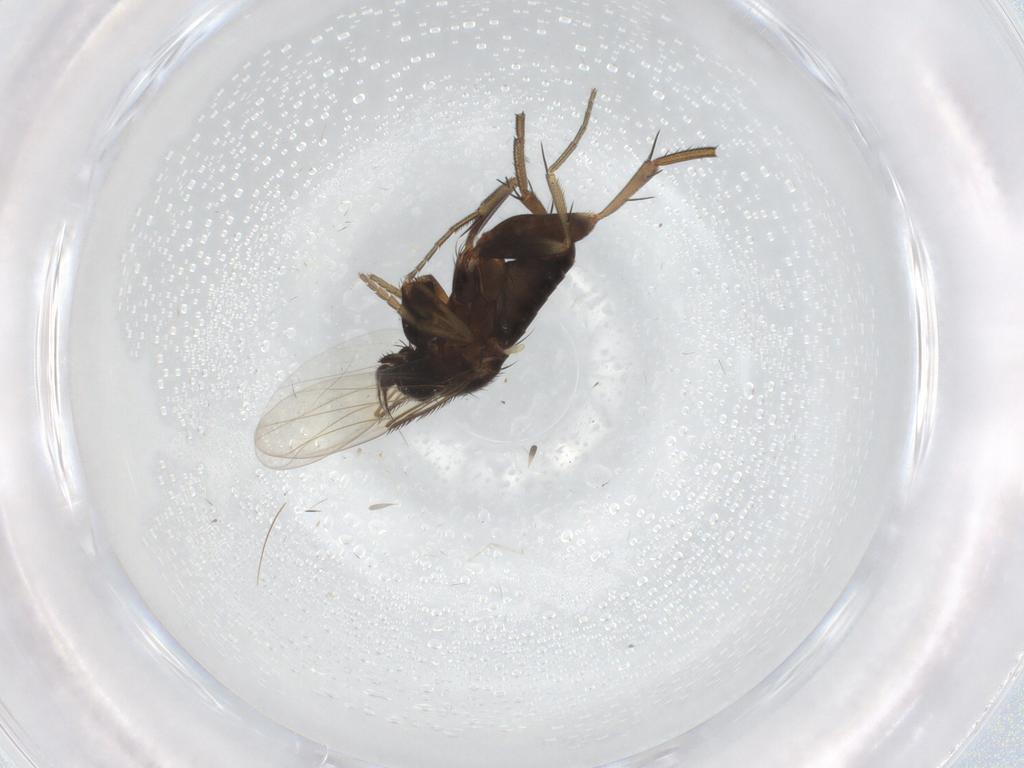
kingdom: Animalia
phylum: Arthropoda
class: Insecta
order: Diptera
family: Phoridae
